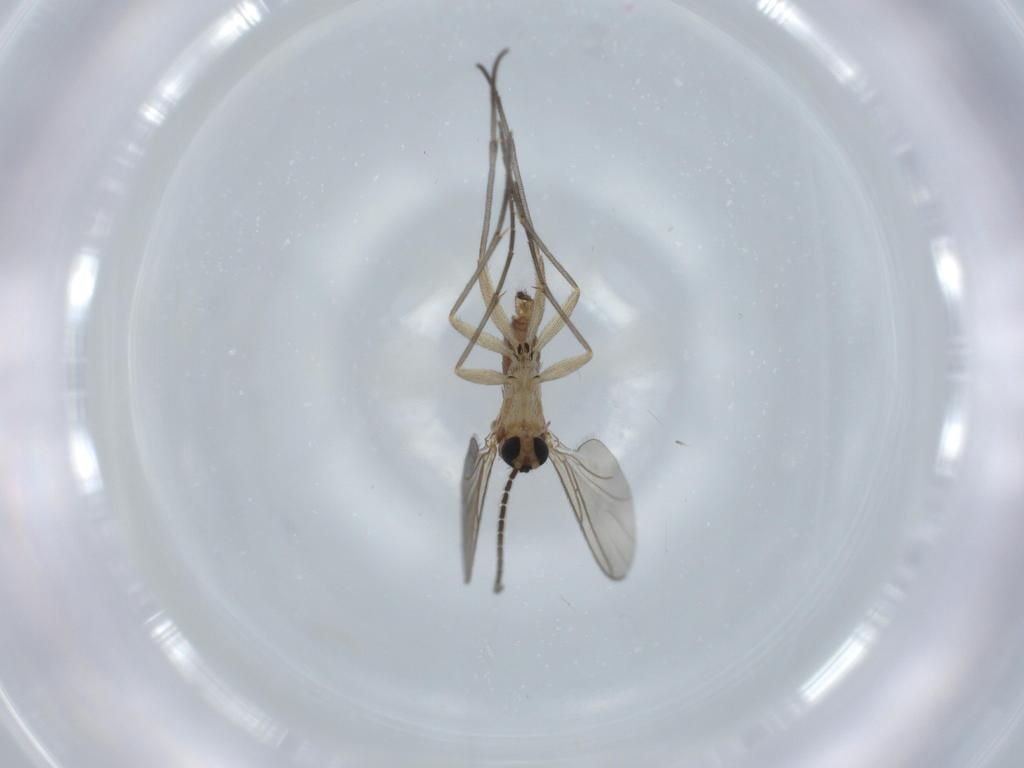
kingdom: Animalia
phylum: Arthropoda
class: Insecta
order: Diptera
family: Sciaridae
